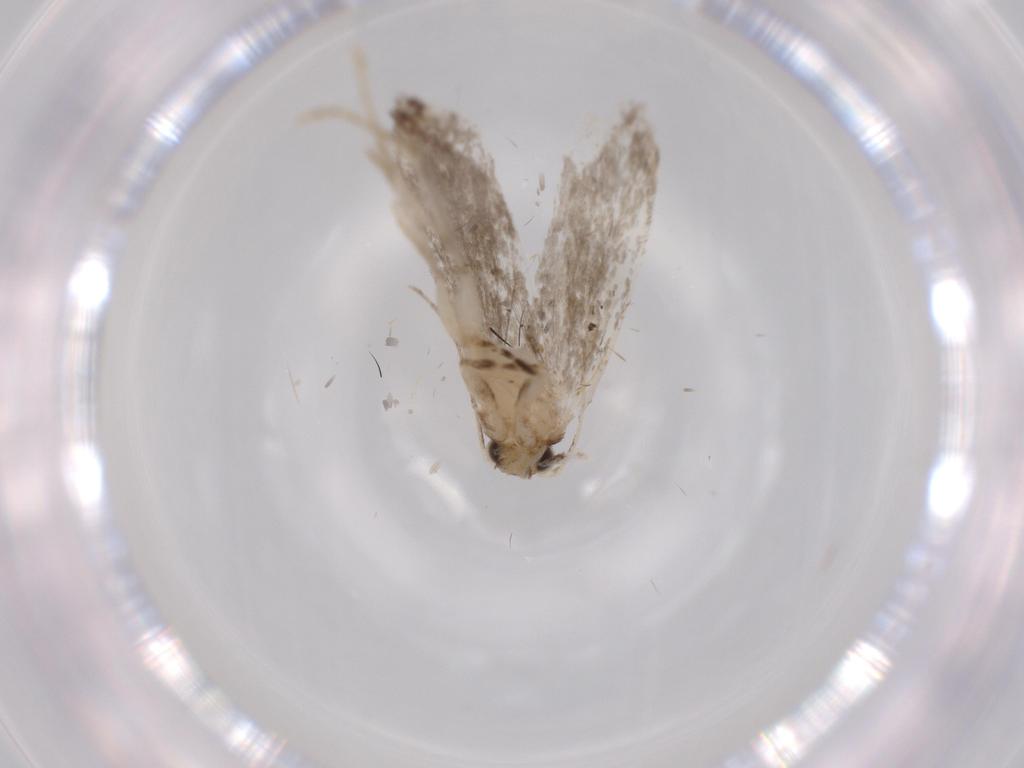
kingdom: Animalia
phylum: Arthropoda
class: Insecta
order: Lepidoptera
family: Tineidae
